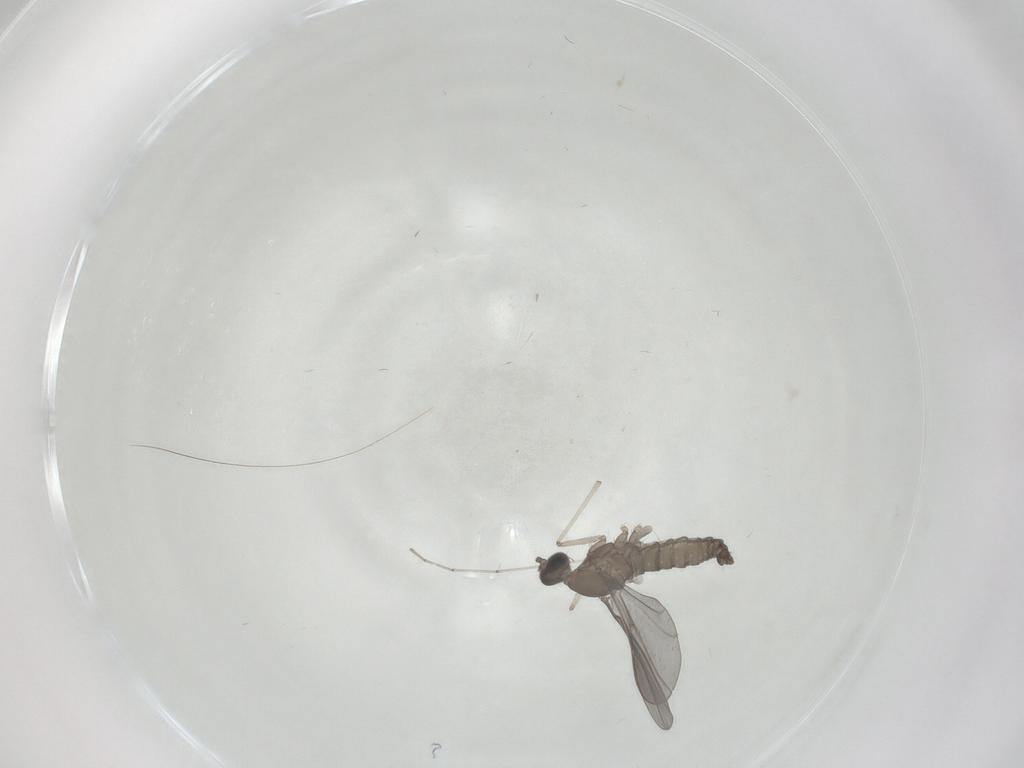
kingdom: Animalia
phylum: Arthropoda
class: Insecta
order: Diptera
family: Cecidomyiidae
